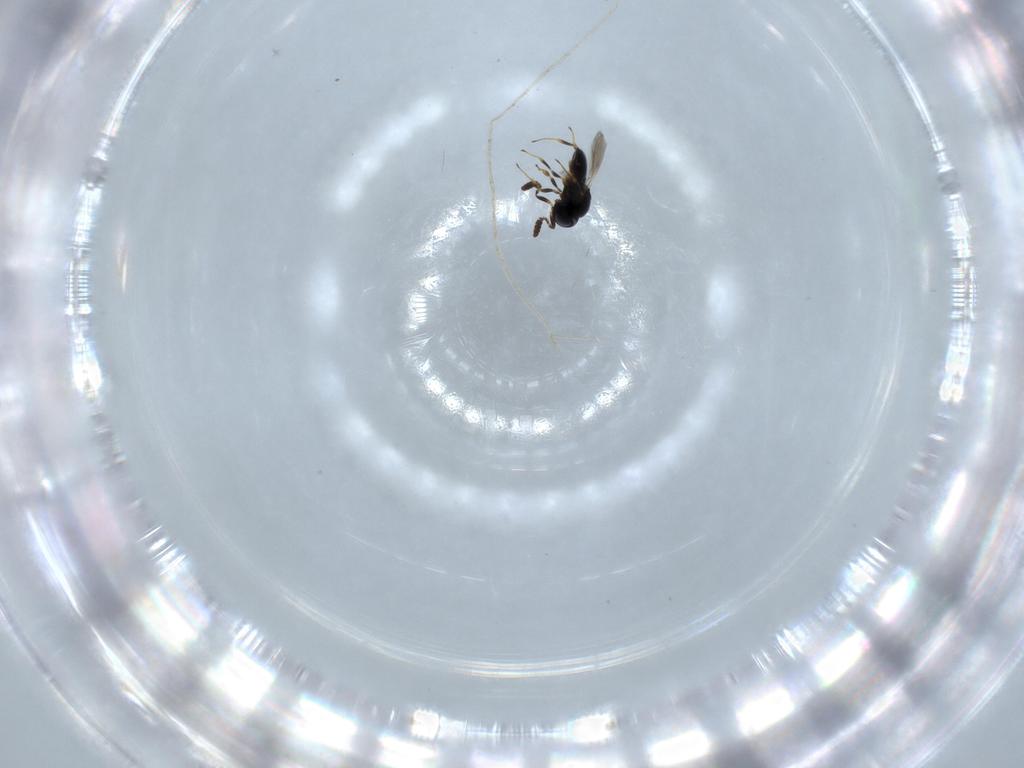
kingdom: Animalia
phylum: Arthropoda
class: Insecta
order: Hymenoptera
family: Scelionidae
